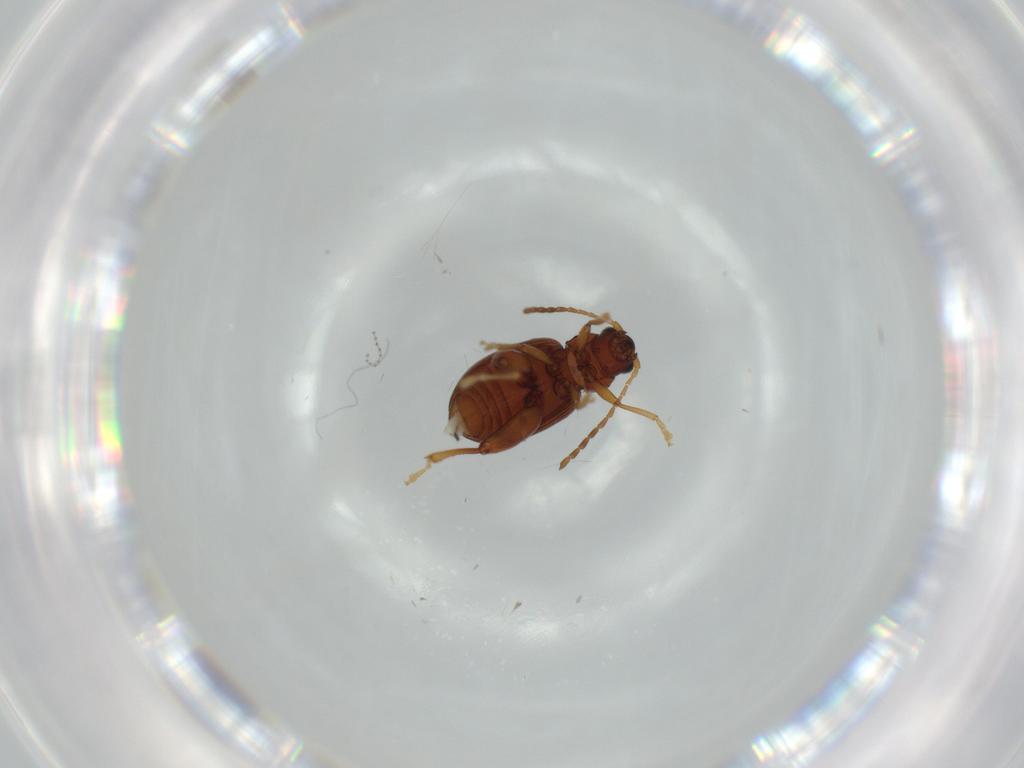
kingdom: Animalia
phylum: Arthropoda
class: Insecta
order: Coleoptera
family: Chrysomelidae
